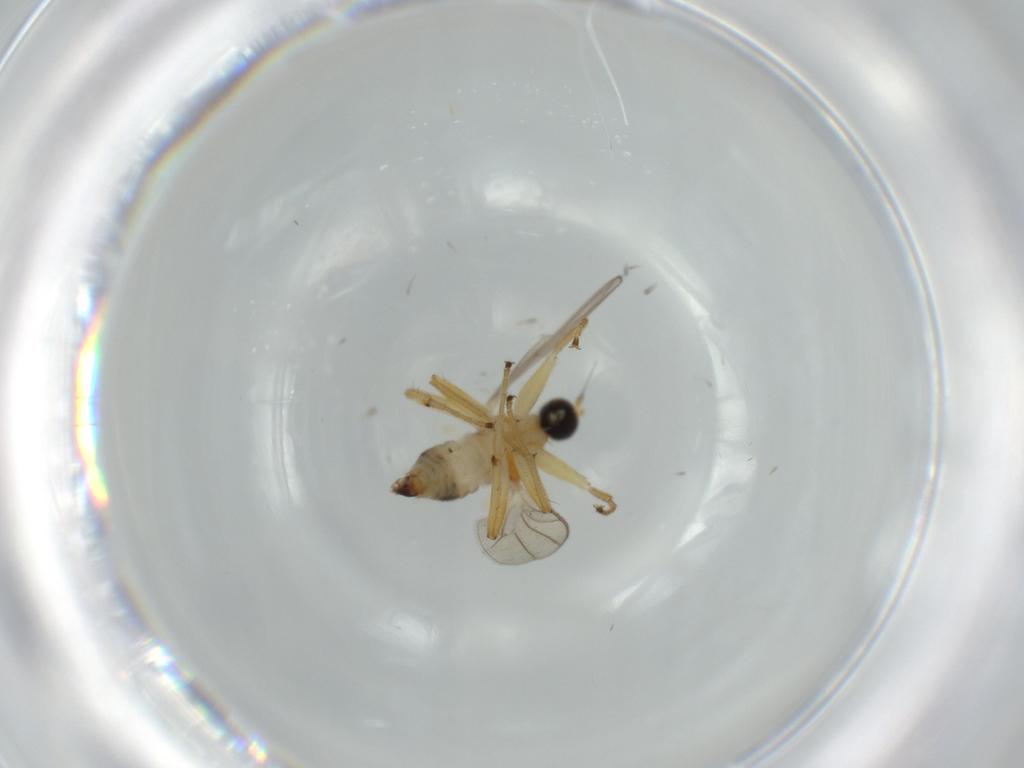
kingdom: Animalia
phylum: Arthropoda
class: Insecta
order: Diptera
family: Hybotidae
